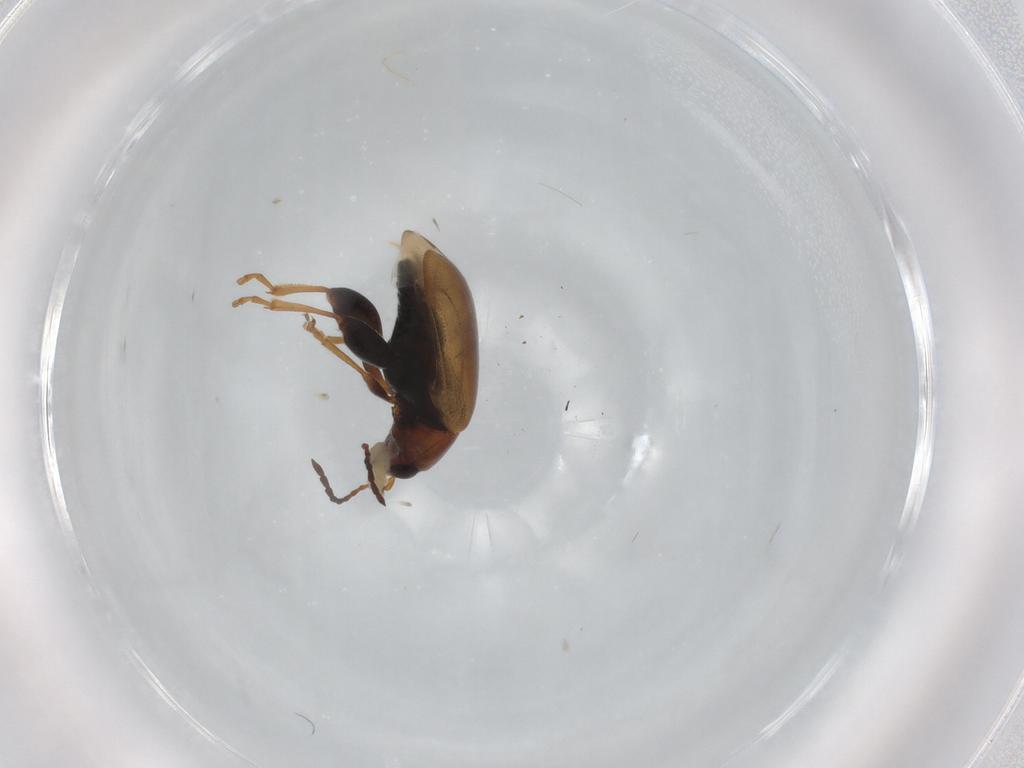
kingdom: Animalia
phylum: Arthropoda
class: Insecta
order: Coleoptera
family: Chrysomelidae
